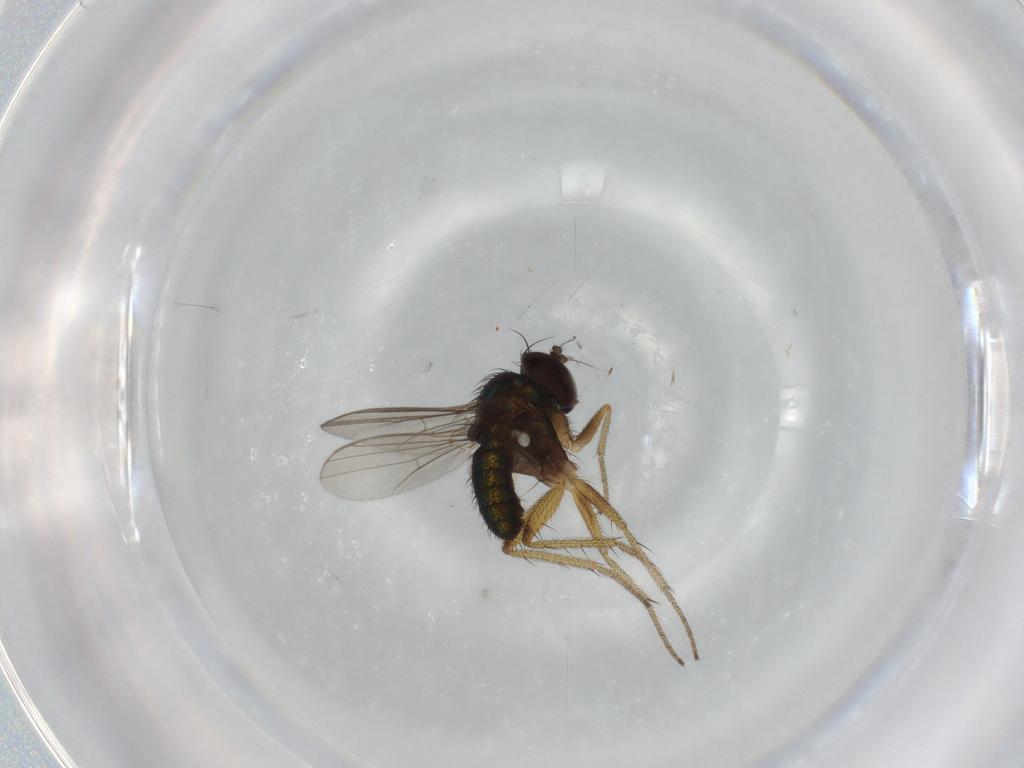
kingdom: Animalia
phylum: Arthropoda
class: Insecta
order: Diptera
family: Dolichopodidae
